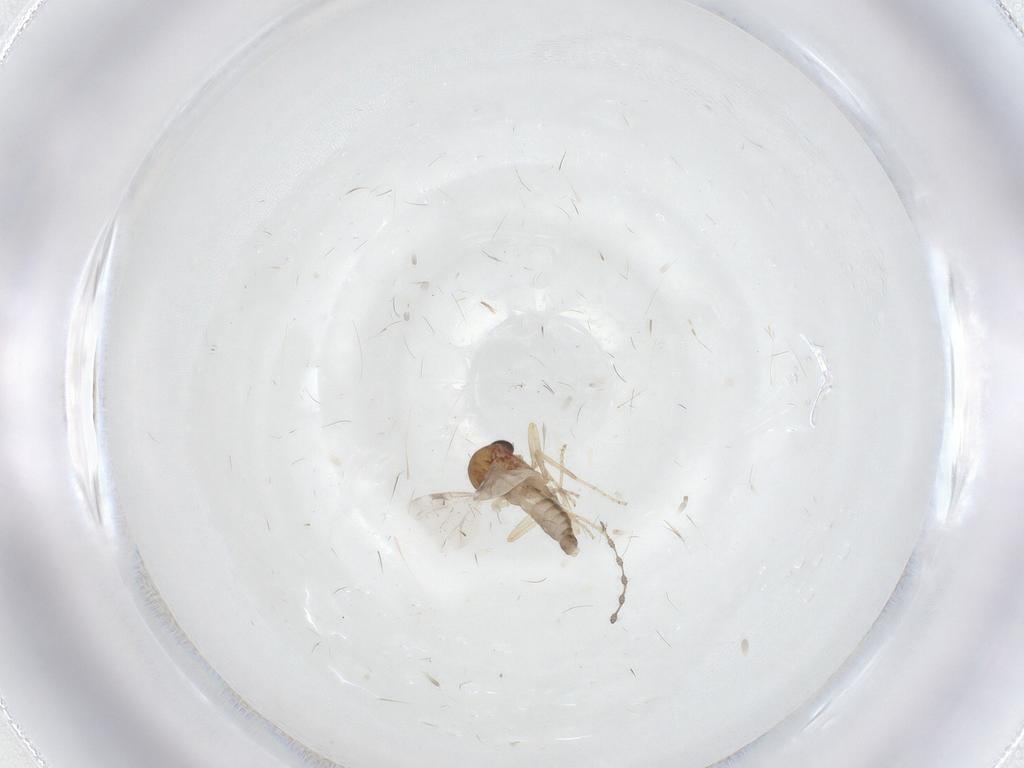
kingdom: Animalia
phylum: Arthropoda
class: Insecta
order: Diptera
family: Ceratopogonidae
